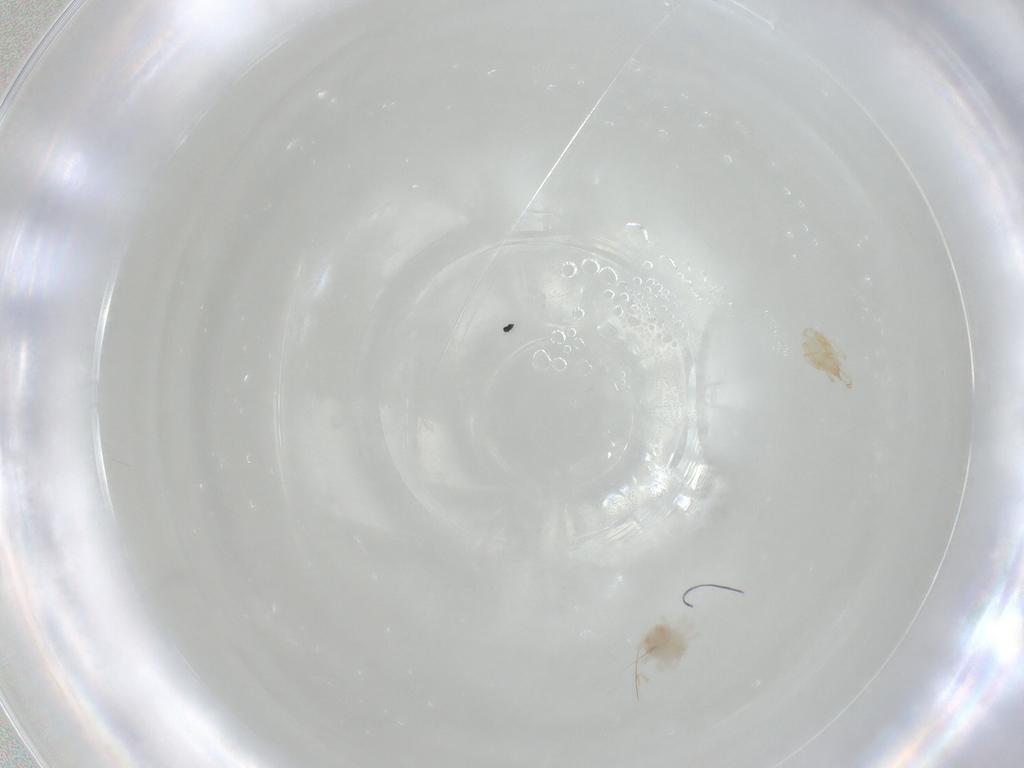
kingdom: Animalia
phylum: Arthropoda
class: Arachnida
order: Trombidiformes
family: Cunaxidae
